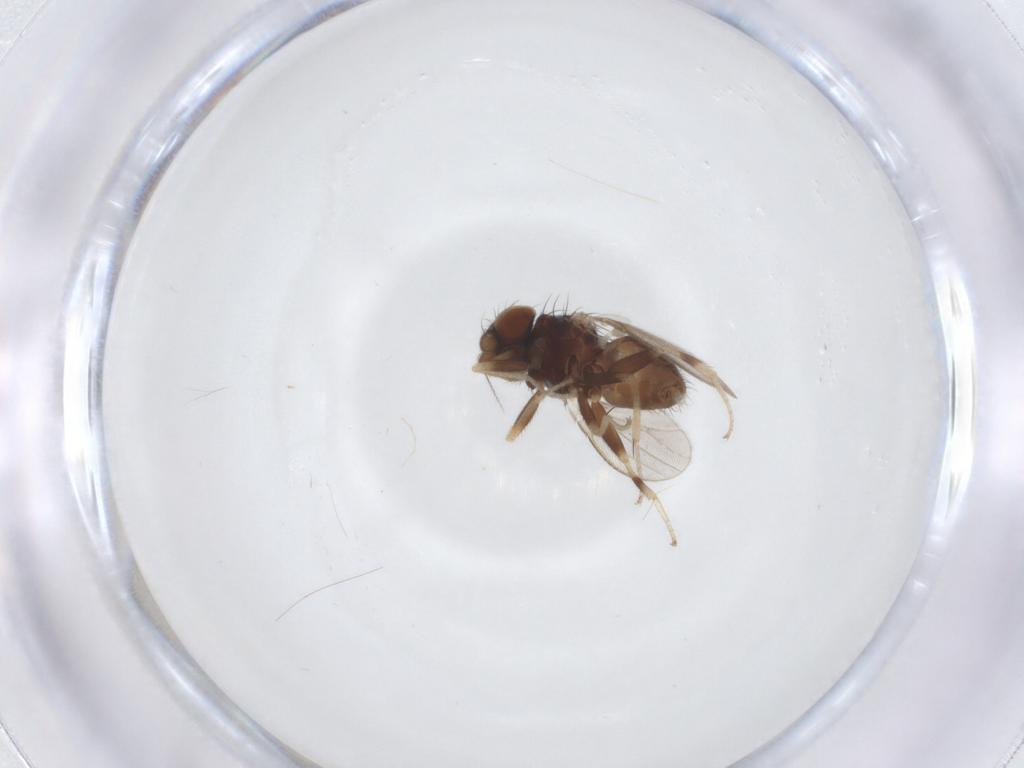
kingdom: Animalia
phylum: Arthropoda
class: Insecta
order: Diptera
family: Milichiidae
